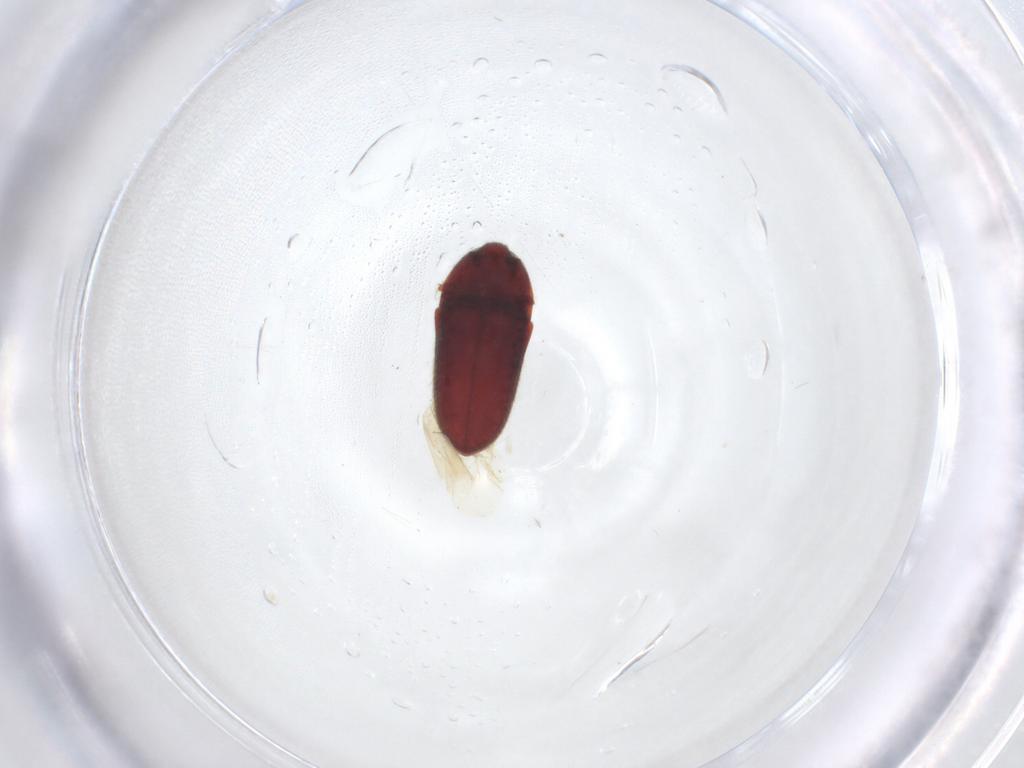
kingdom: Animalia
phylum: Arthropoda
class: Insecta
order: Coleoptera
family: Throscidae
